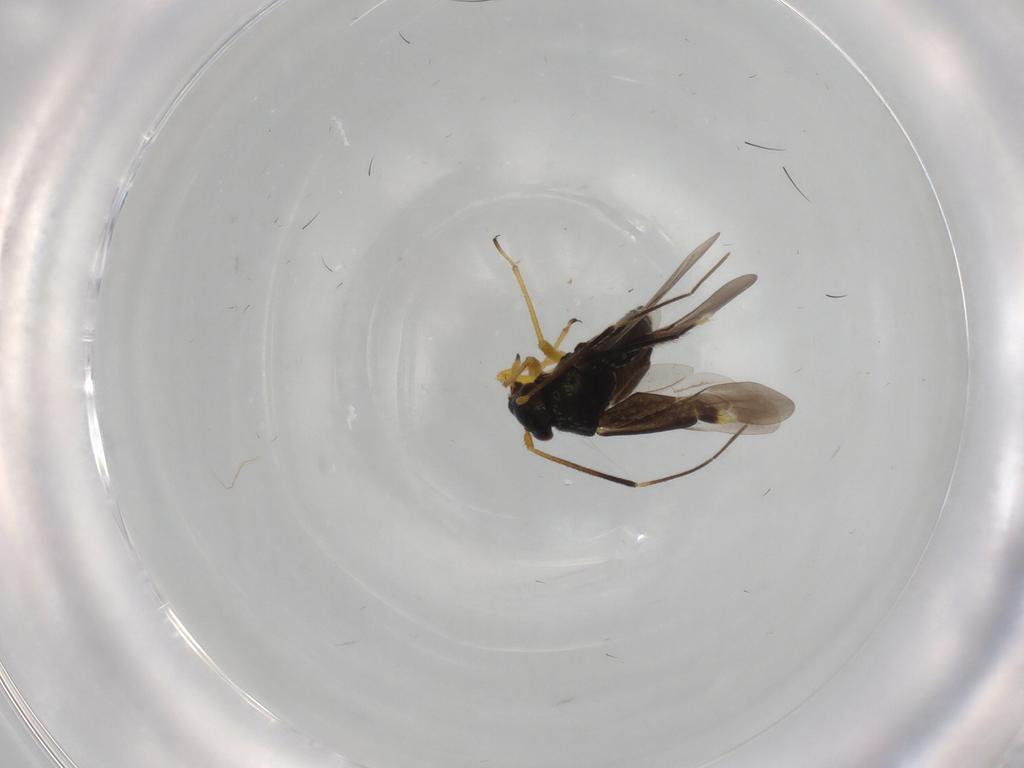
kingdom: Animalia
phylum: Arthropoda
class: Insecta
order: Hemiptera
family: Miridae
